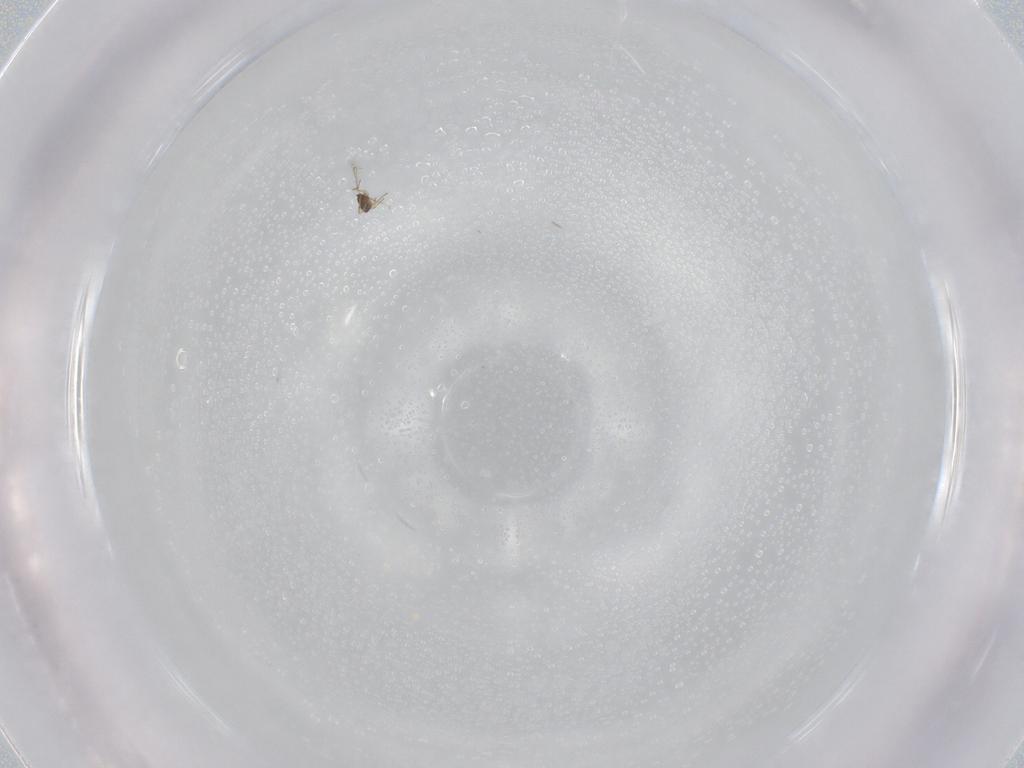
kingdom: Animalia
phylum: Arthropoda
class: Insecta
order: Hymenoptera
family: Mymaridae
